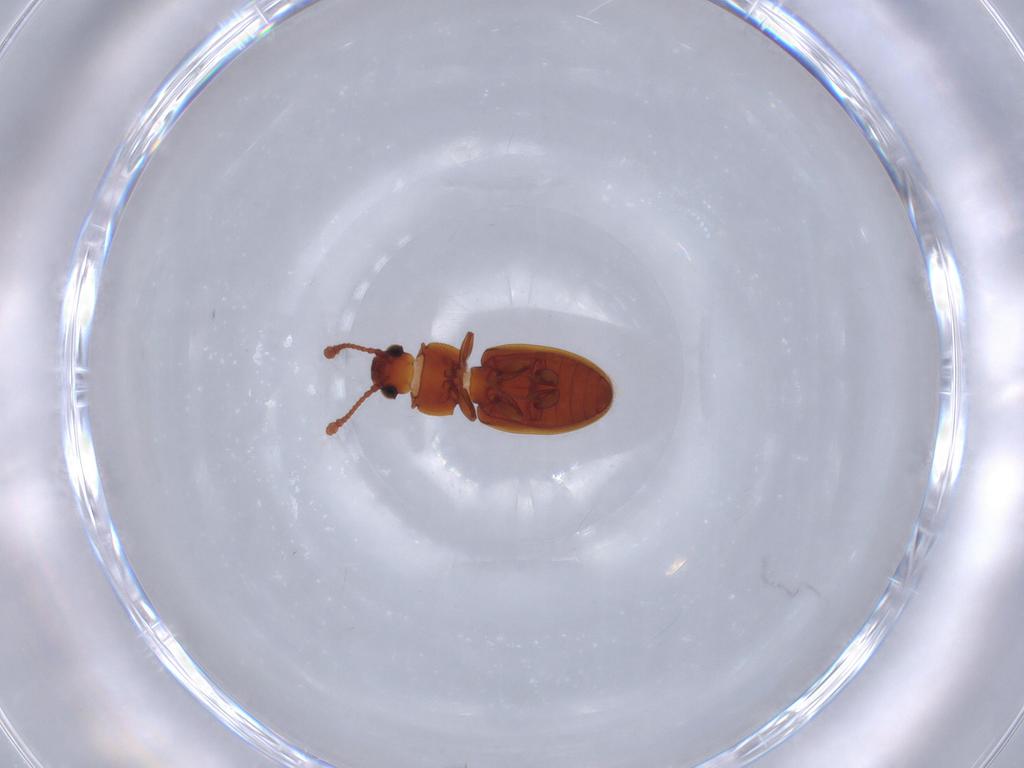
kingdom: Animalia
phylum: Arthropoda
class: Insecta
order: Coleoptera
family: Silvanidae
